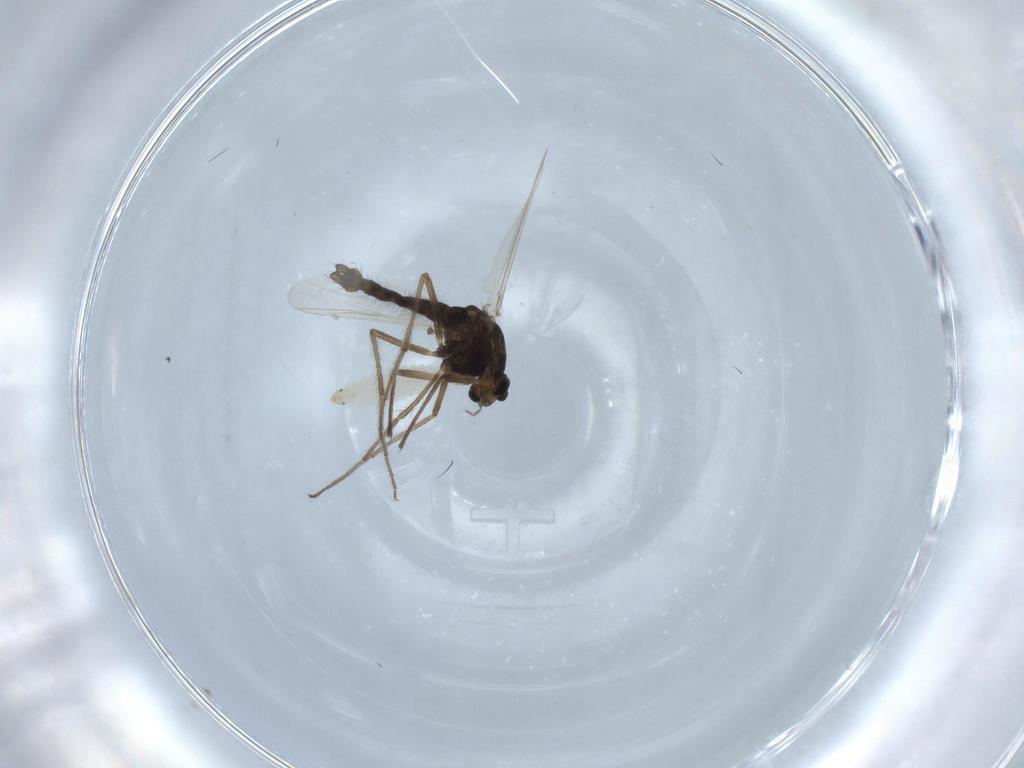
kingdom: Animalia
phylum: Arthropoda
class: Insecta
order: Diptera
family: Chironomidae
